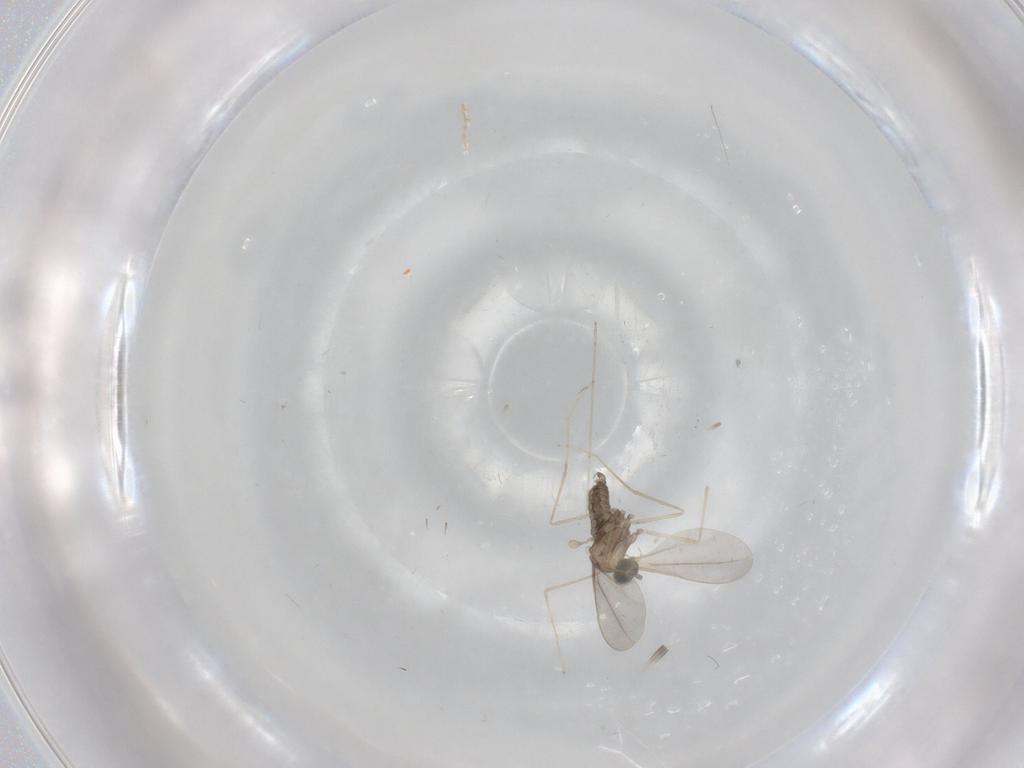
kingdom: Animalia
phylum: Arthropoda
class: Insecta
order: Diptera
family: Cecidomyiidae
